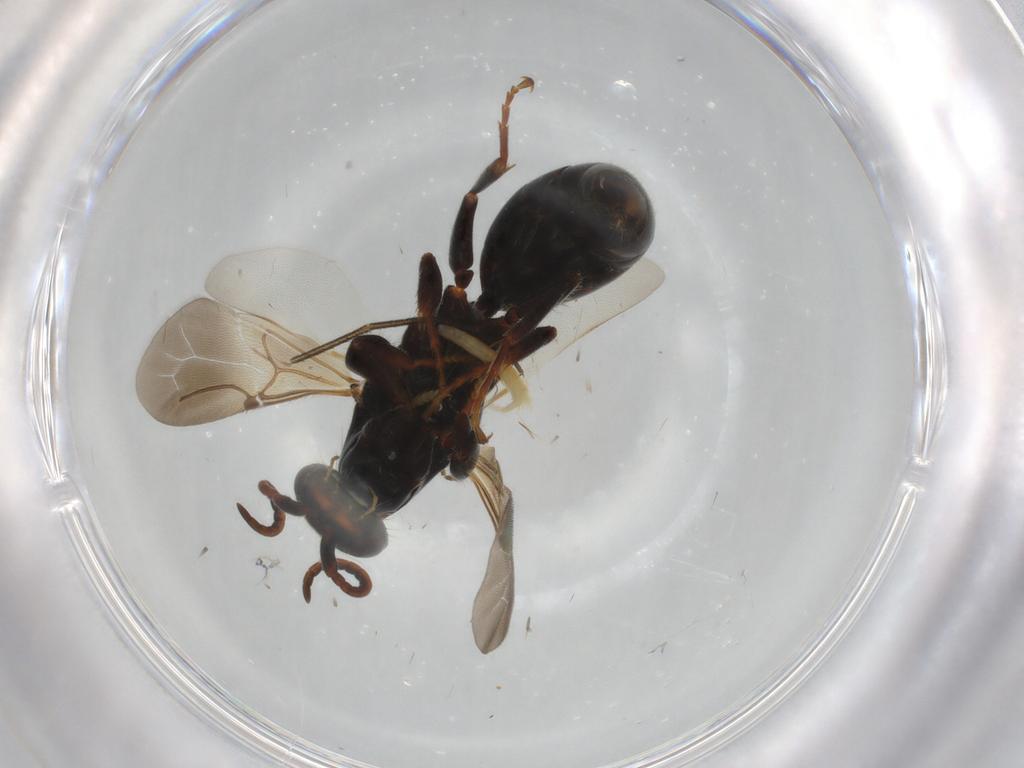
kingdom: Animalia
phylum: Arthropoda
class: Insecta
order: Hymenoptera
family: Bethylidae
